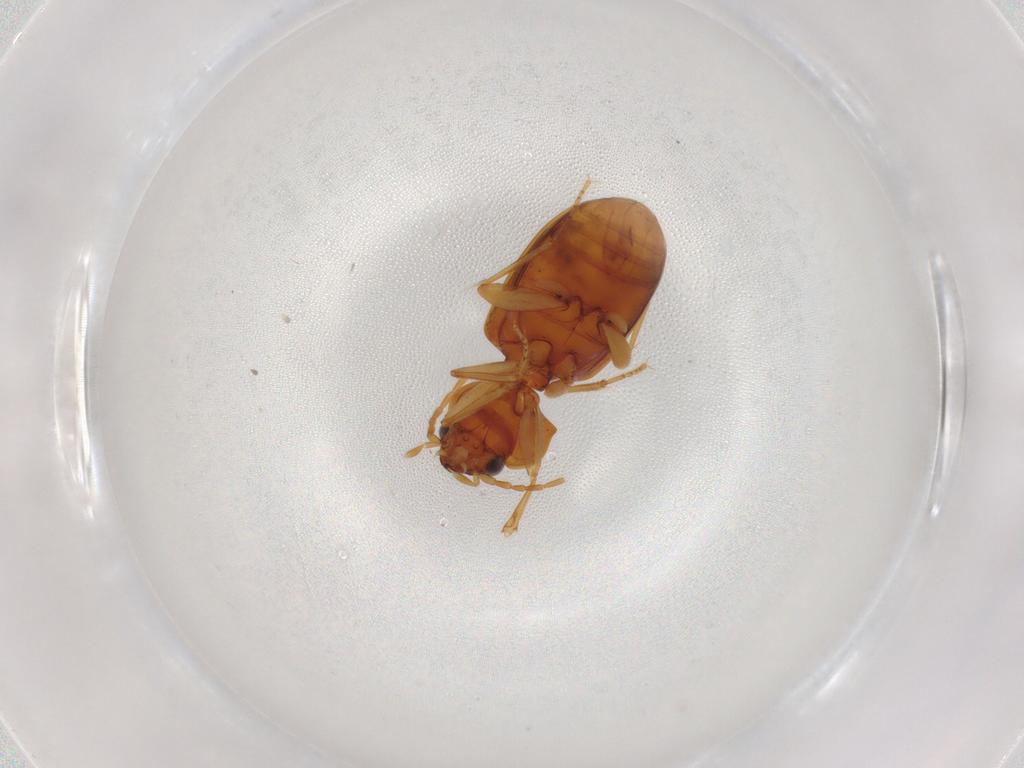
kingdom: Animalia
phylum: Arthropoda
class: Insecta
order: Coleoptera
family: Carabidae
